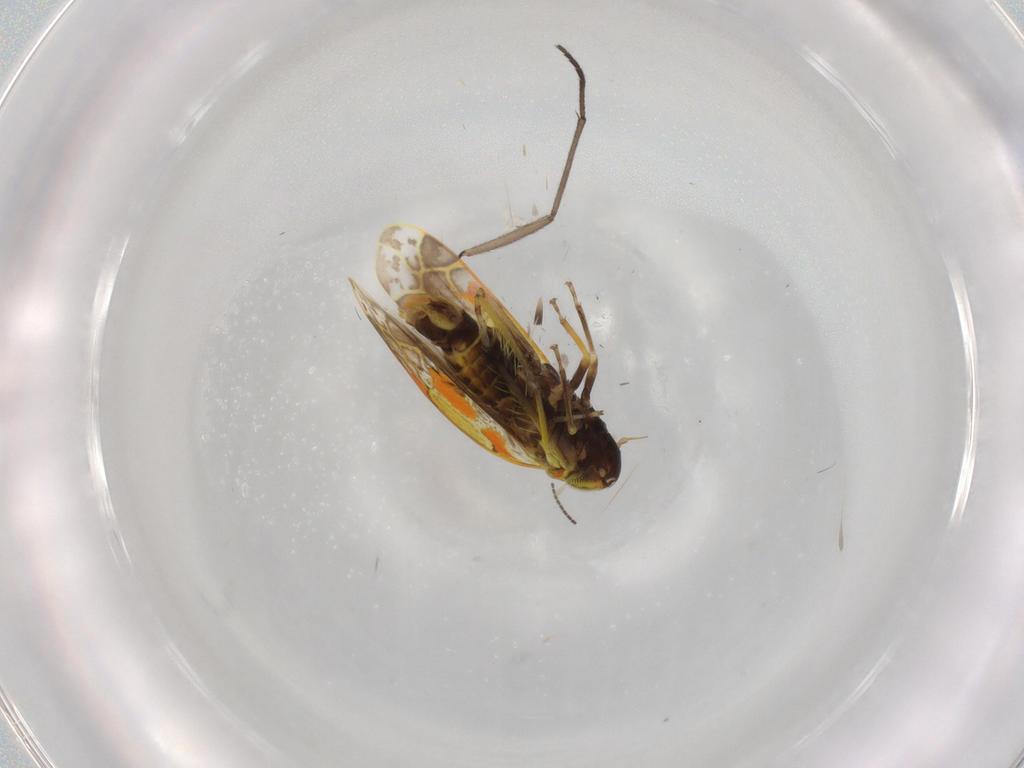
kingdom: Animalia
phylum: Arthropoda
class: Insecta
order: Hemiptera
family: Cicadellidae
